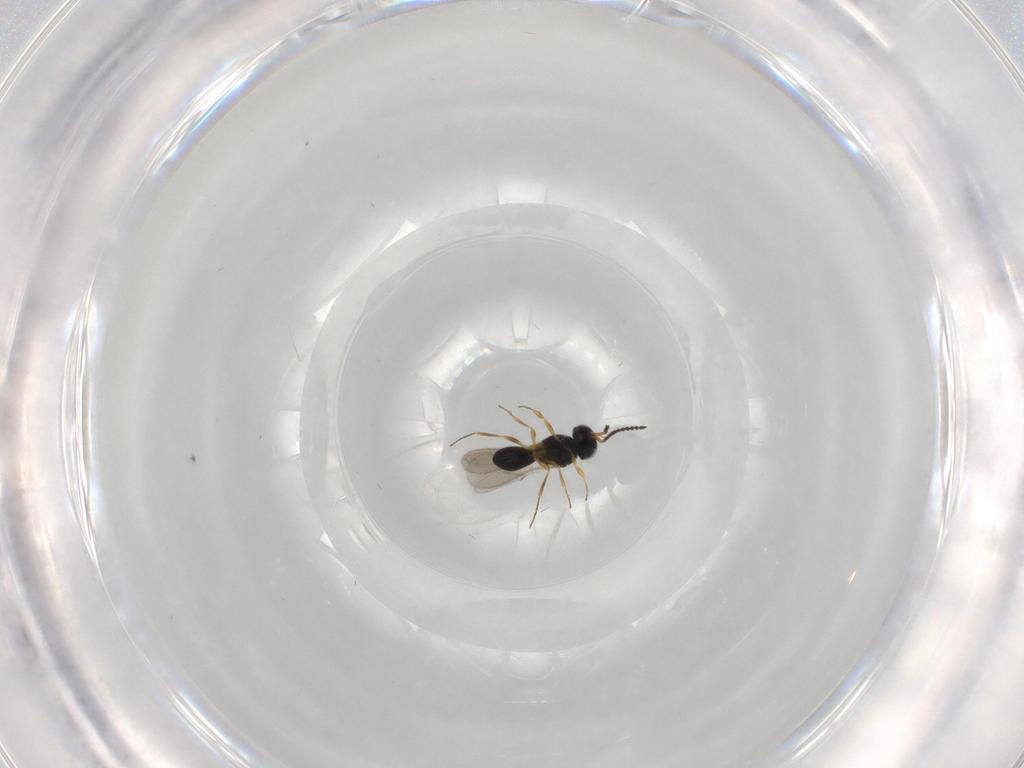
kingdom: Animalia
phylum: Arthropoda
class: Insecta
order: Hymenoptera
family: Scelionidae
